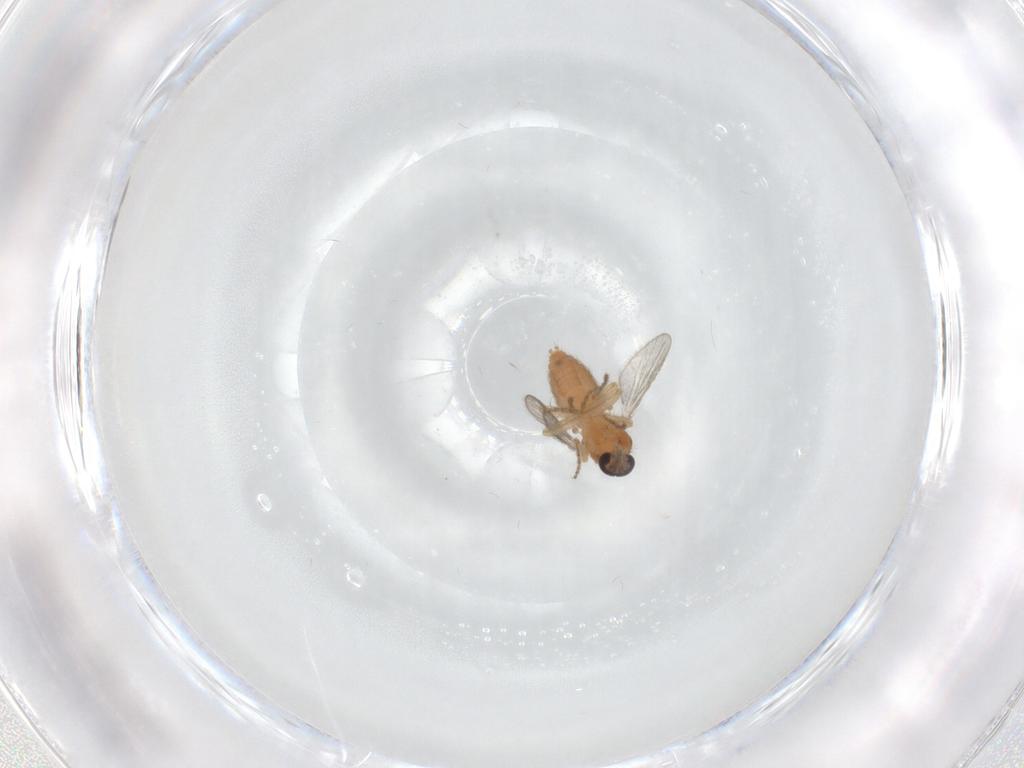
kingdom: Animalia
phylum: Arthropoda
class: Insecta
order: Diptera
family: Ceratopogonidae
